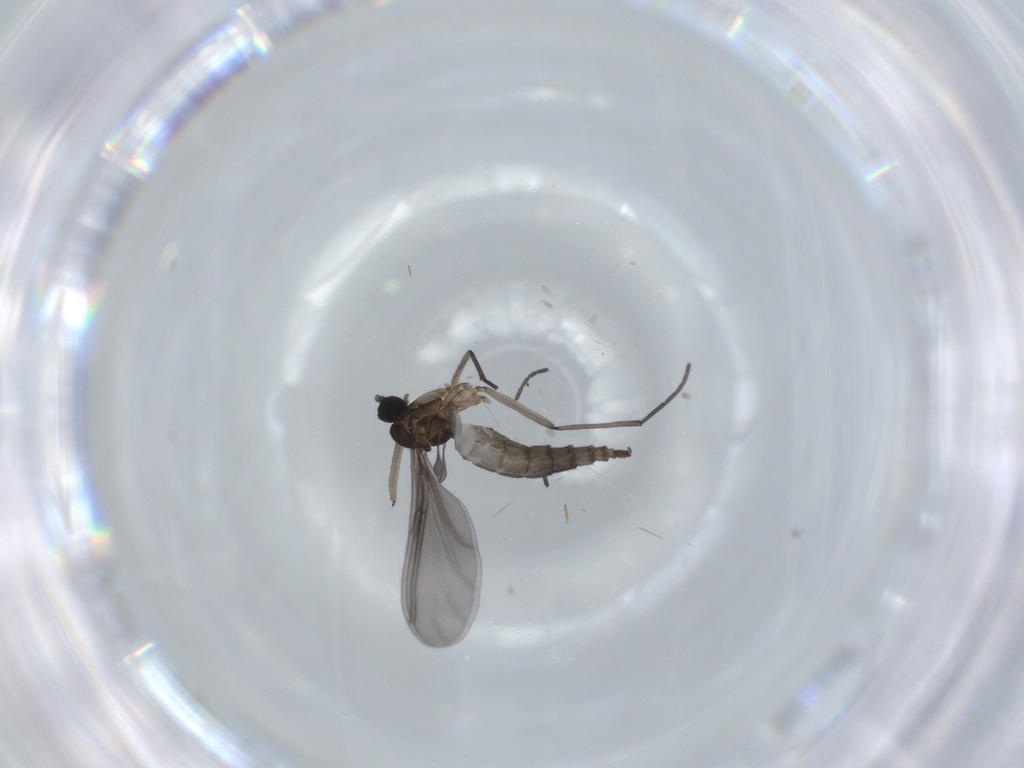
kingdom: Animalia
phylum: Arthropoda
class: Insecta
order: Diptera
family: Sciaridae
